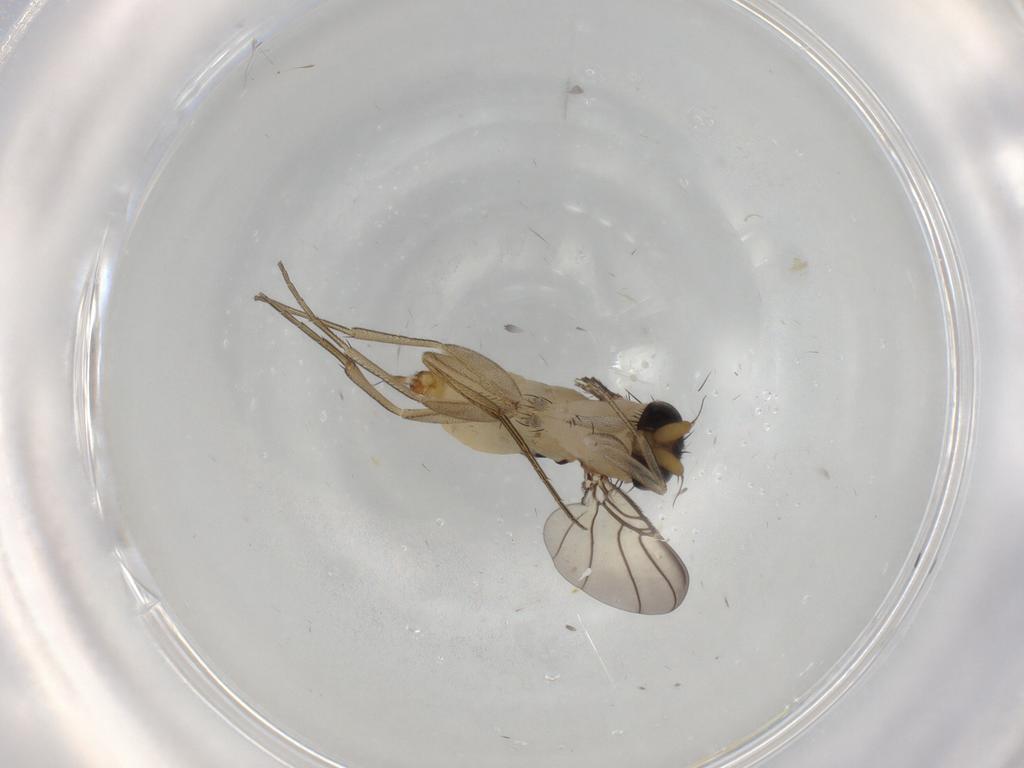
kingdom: Animalia
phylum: Arthropoda
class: Insecta
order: Diptera
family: Phoridae
